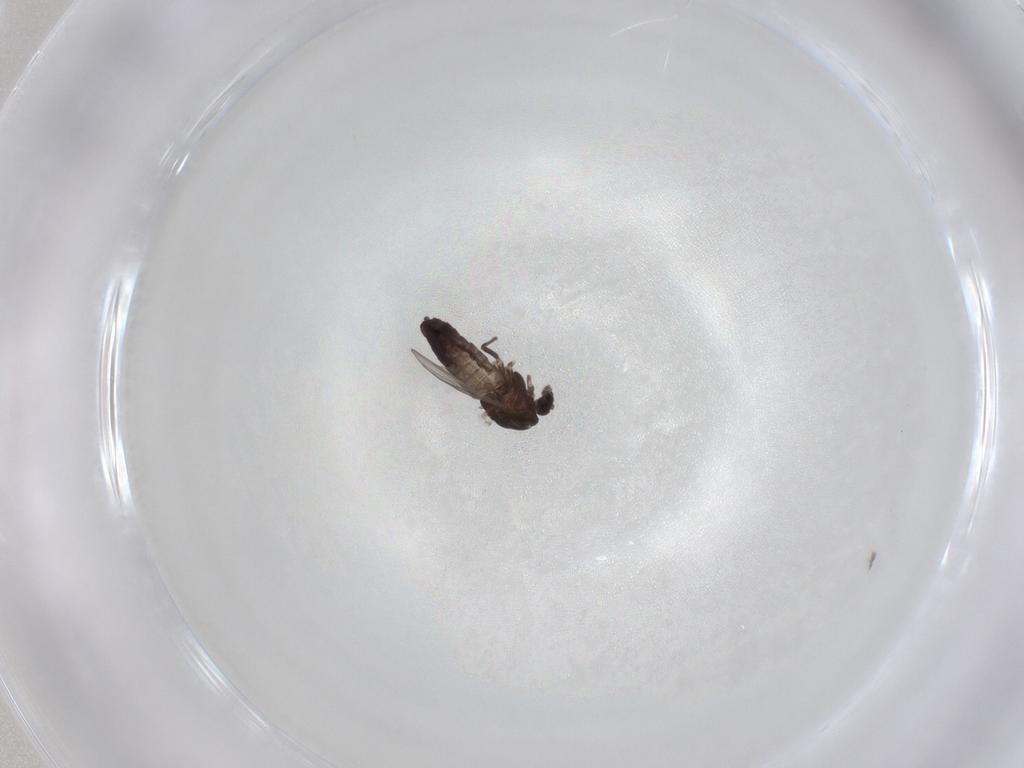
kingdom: Animalia
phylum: Arthropoda
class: Insecta
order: Diptera
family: Chironomidae
